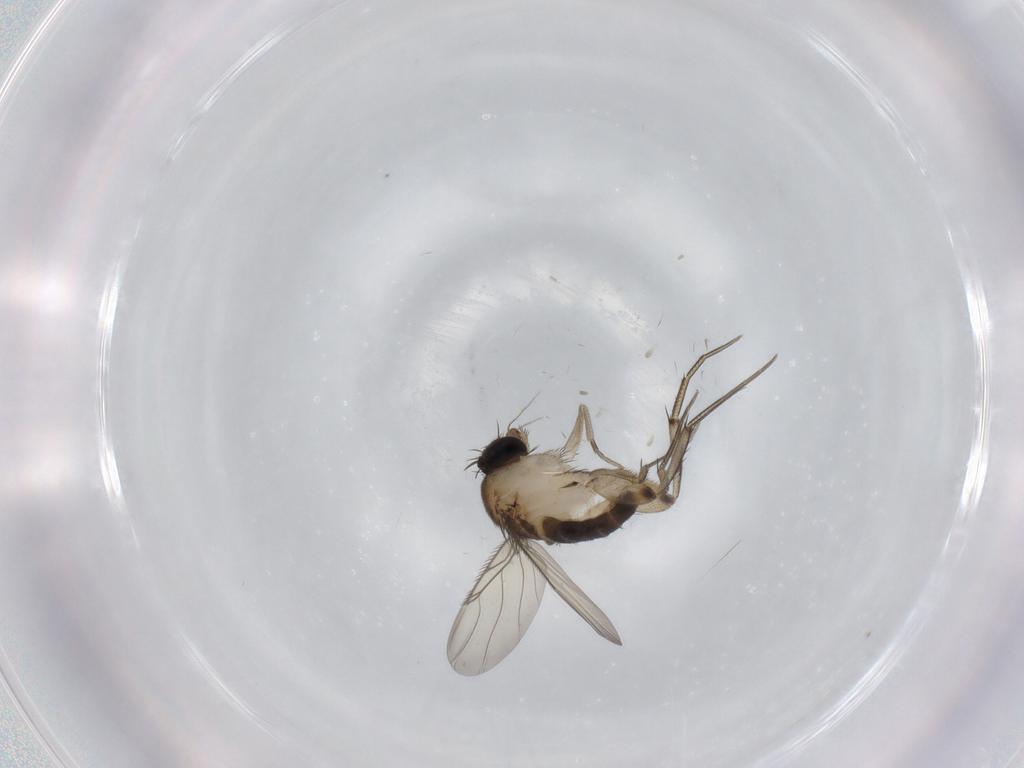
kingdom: Animalia
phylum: Arthropoda
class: Insecta
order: Diptera
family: Phoridae
